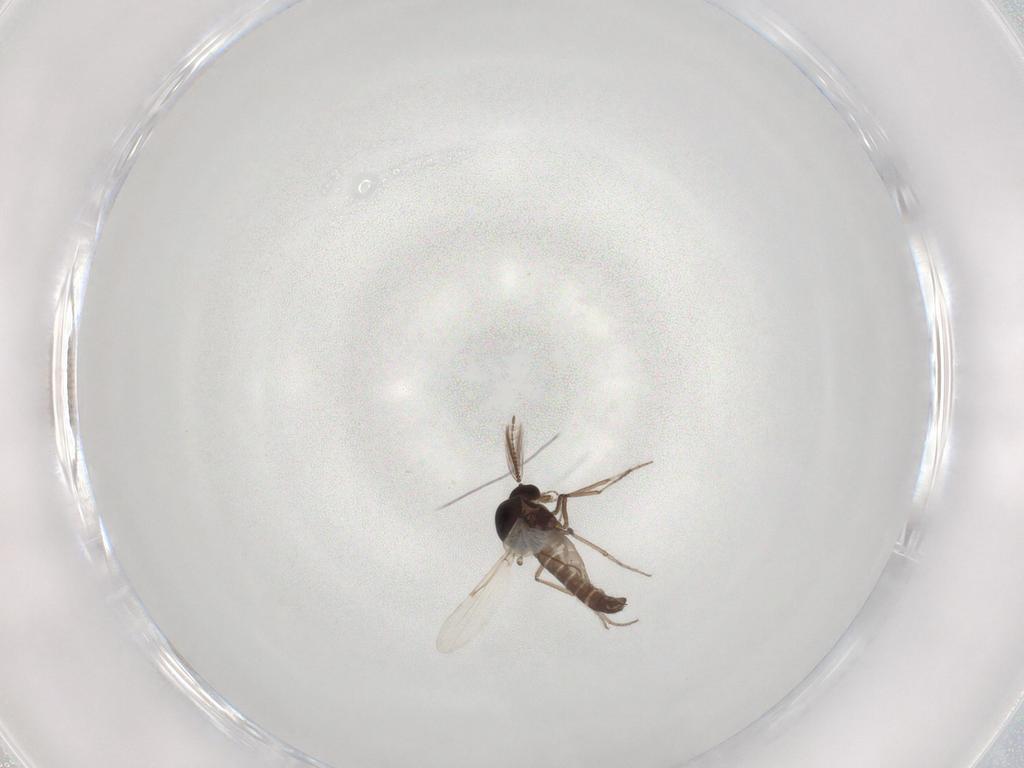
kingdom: Animalia
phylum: Arthropoda
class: Insecta
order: Diptera
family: Chironomidae
